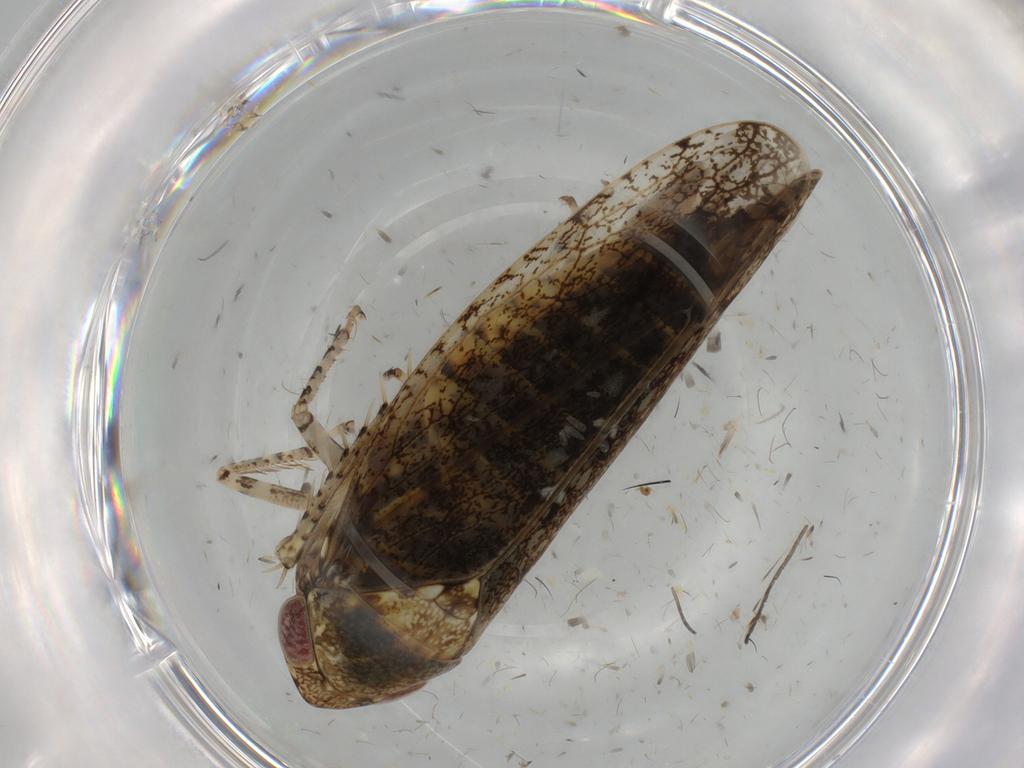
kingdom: Animalia
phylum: Arthropoda
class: Insecta
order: Hemiptera
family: Cicadellidae
